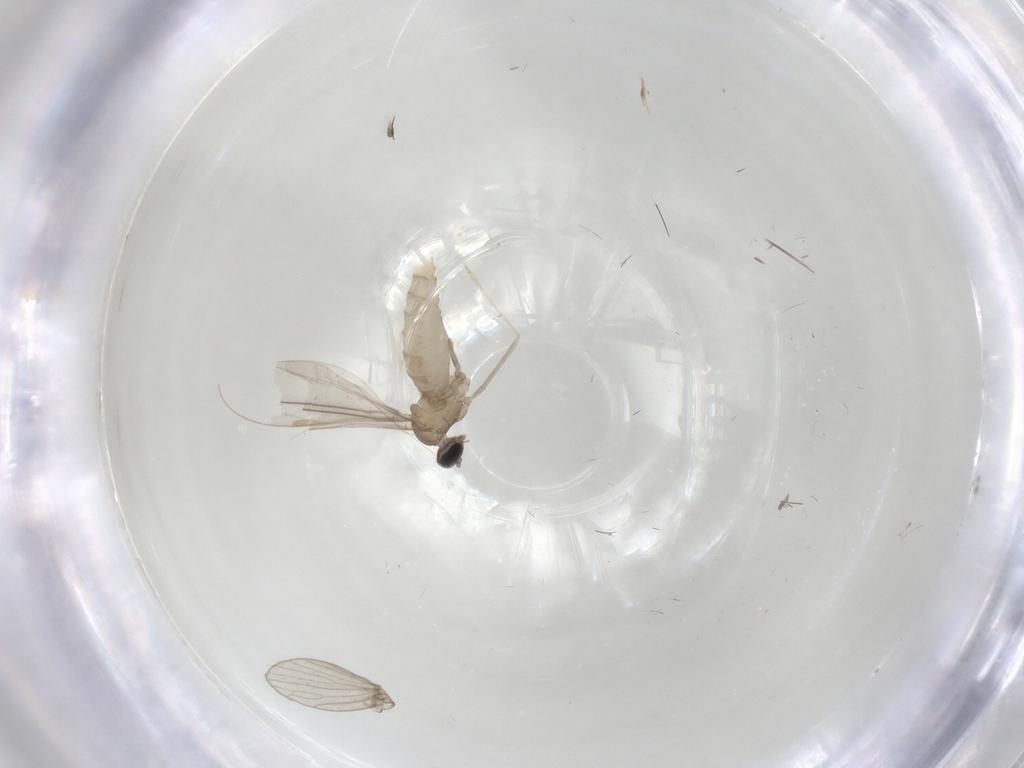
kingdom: Animalia
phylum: Arthropoda
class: Insecta
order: Diptera
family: Cecidomyiidae
